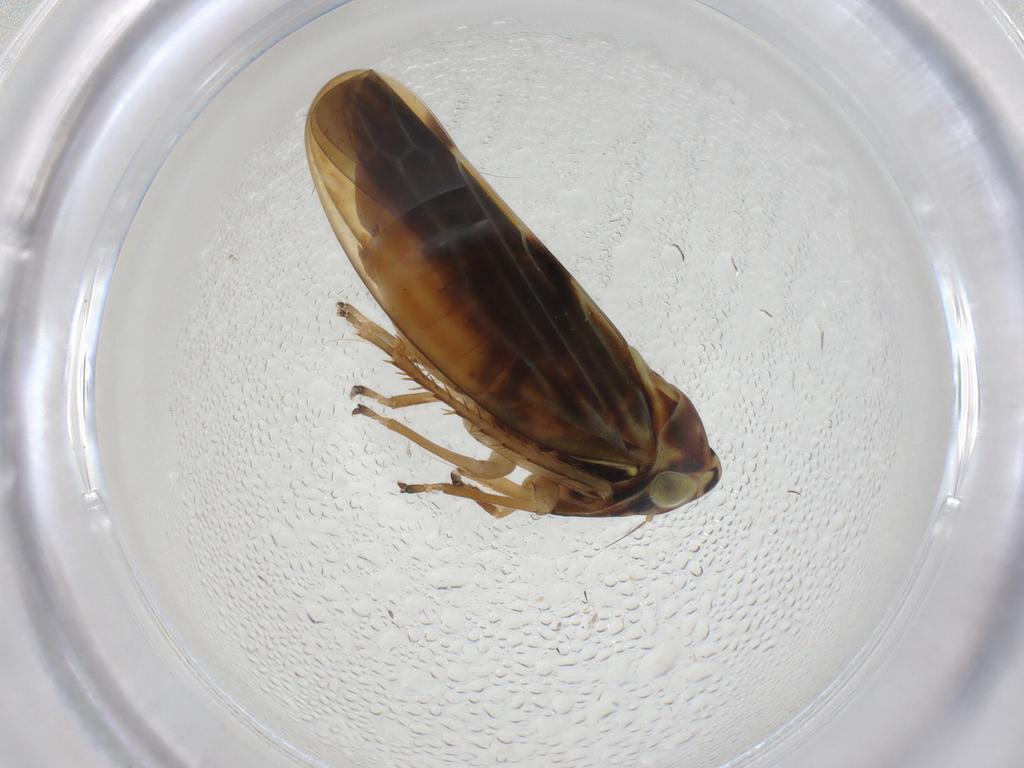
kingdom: Animalia
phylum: Arthropoda
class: Insecta
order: Hemiptera
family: Cicadellidae
